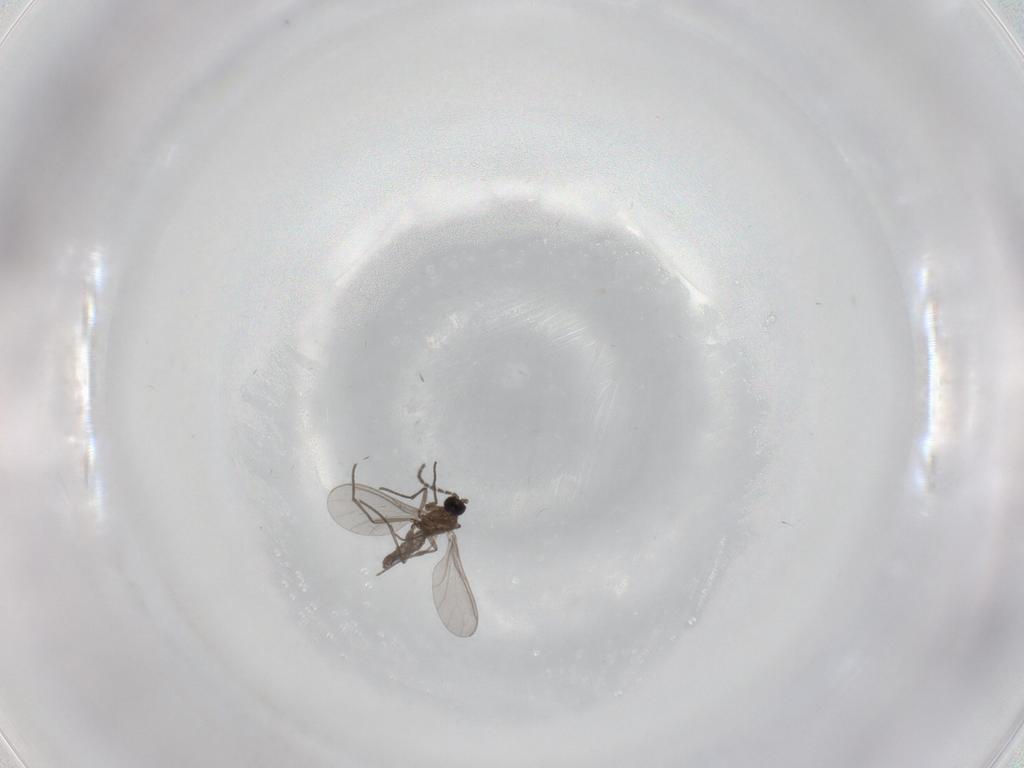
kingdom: Animalia
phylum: Arthropoda
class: Insecta
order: Diptera
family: Sciaridae
